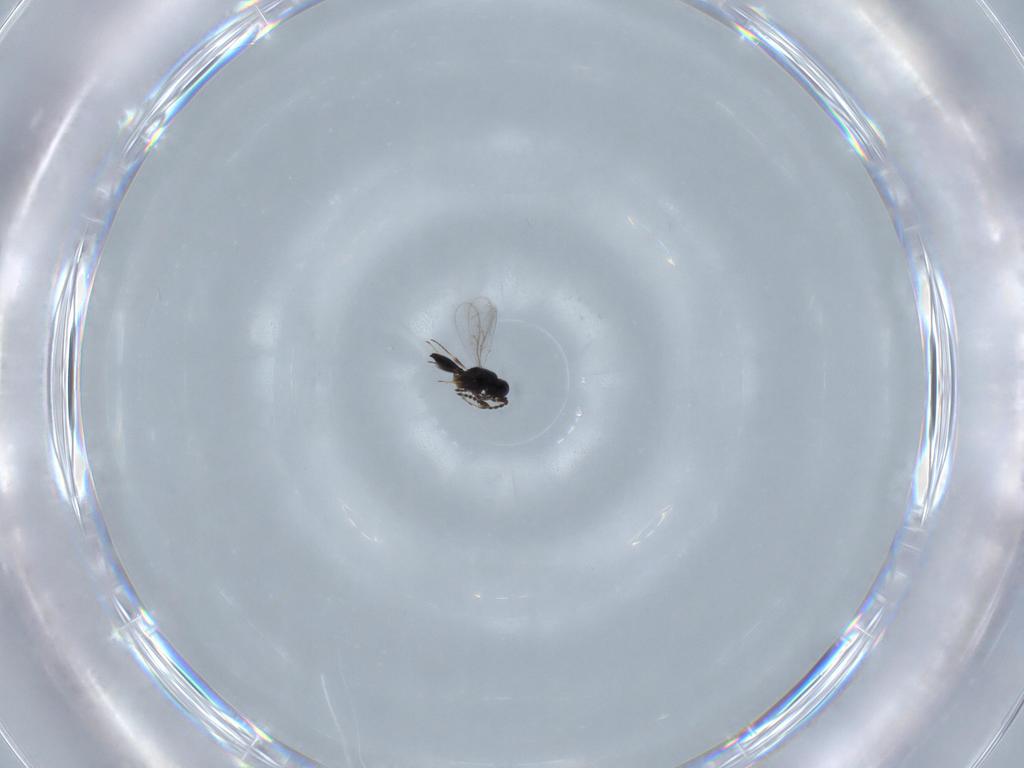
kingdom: Animalia
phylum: Arthropoda
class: Insecta
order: Hymenoptera
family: Scelionidae
